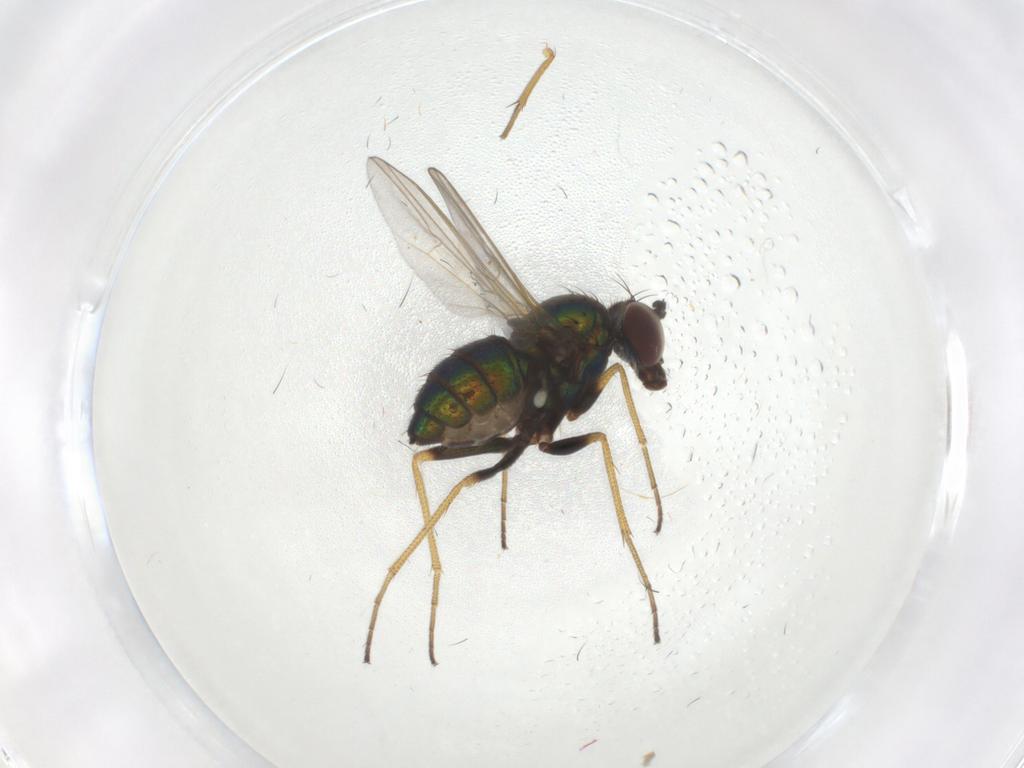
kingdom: Animalia
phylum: Arthropoda
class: Insecta
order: Diptera
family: Dolichopodidae
